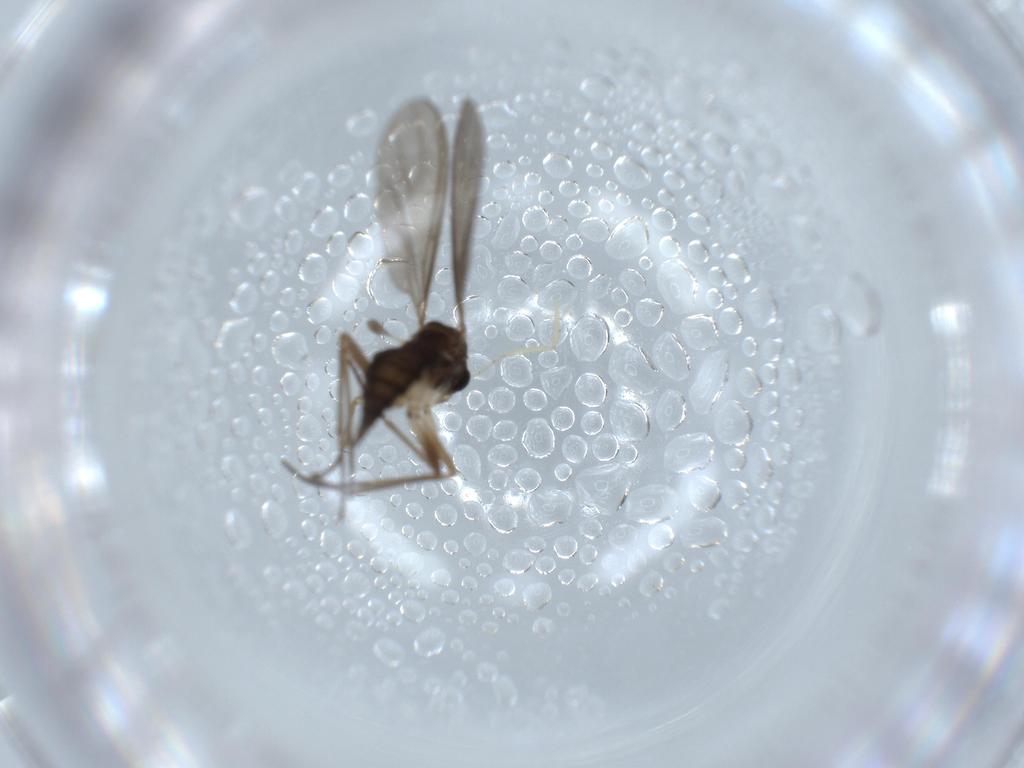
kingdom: Animalia
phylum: Arthropoda
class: Insecta
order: Diptera
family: Sciaridae
